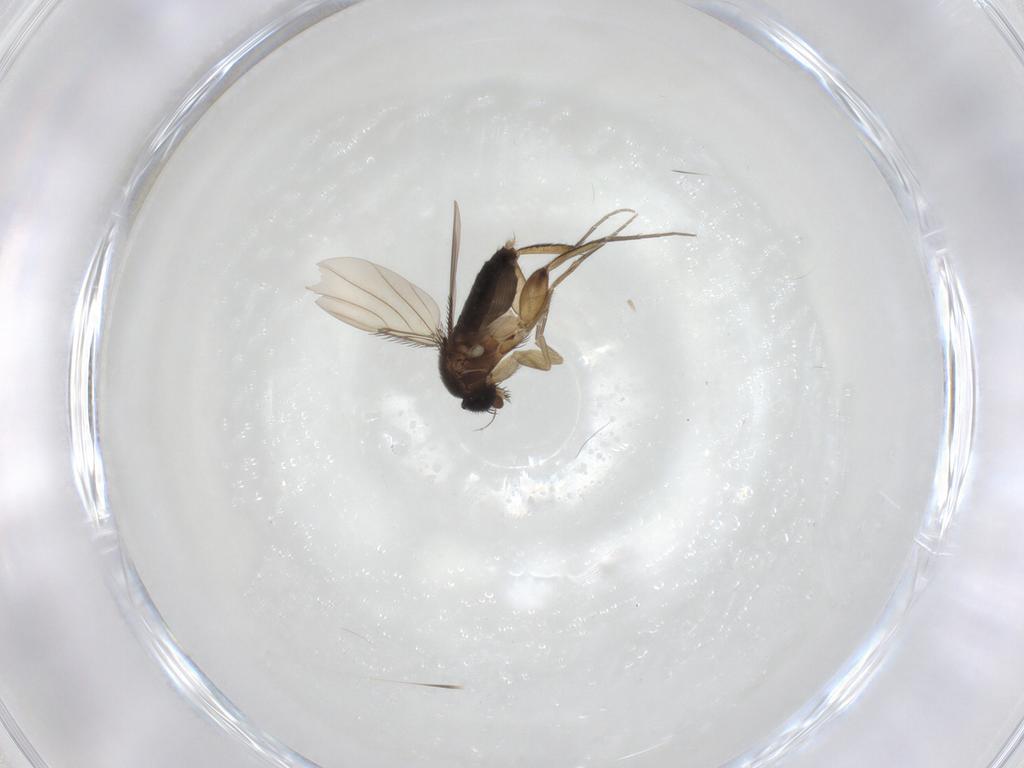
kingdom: Animalia
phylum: Arthropoda
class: Insecta
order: Diptera
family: Phoridae
